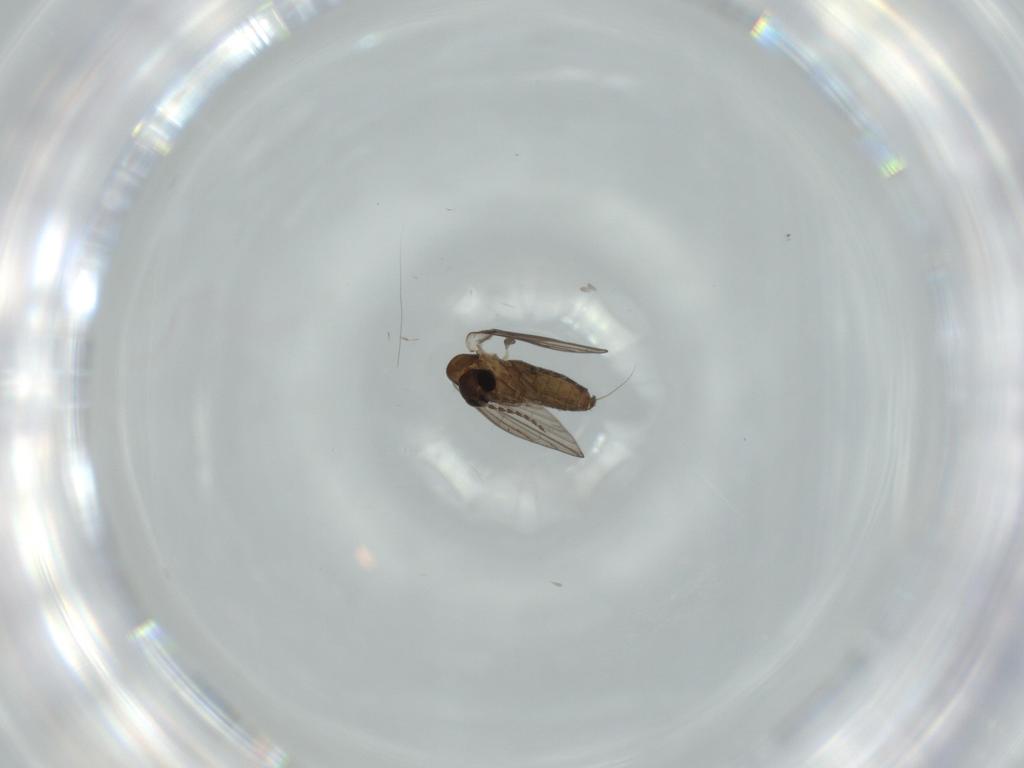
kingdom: Animalia
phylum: Arthropoda
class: Insecta
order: Diptera
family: Psychodidae
